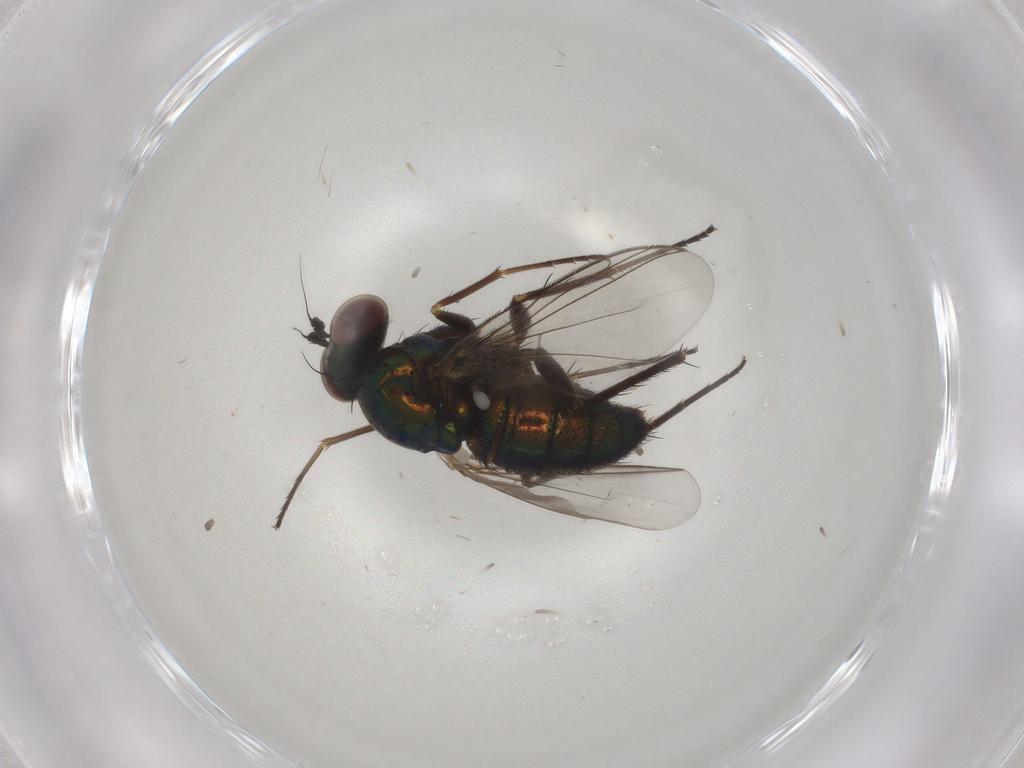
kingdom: Animalia
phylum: Arthropoda
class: Insecta
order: Diptera
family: Dolichopodidae
